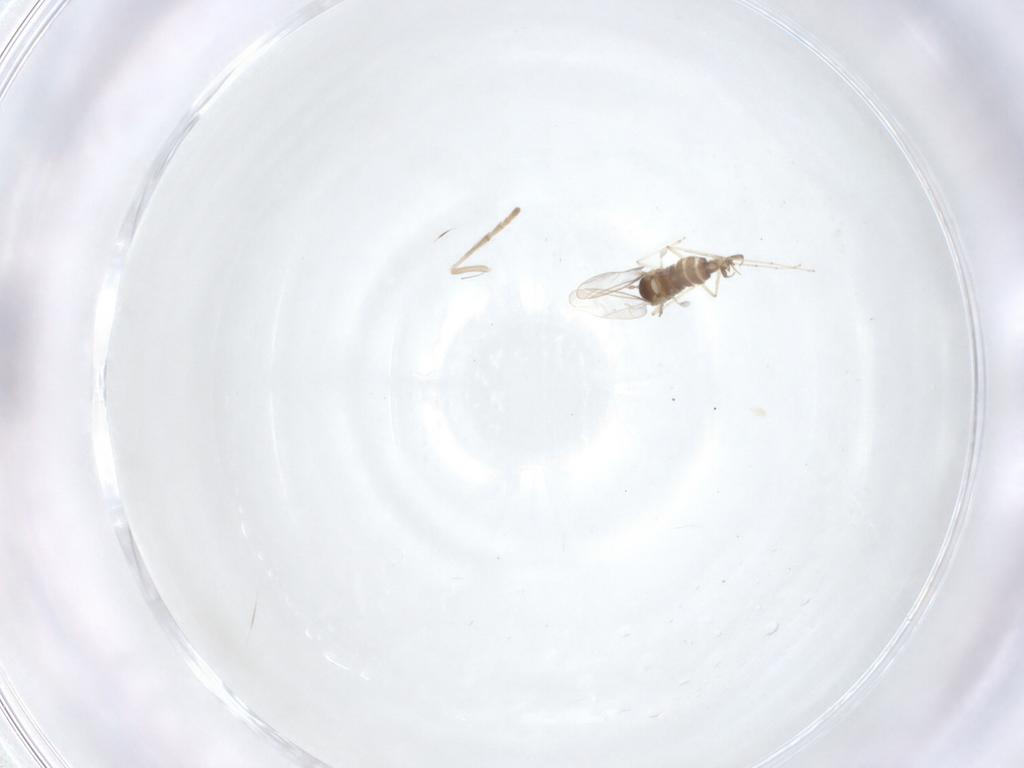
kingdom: Animalia
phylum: Arthropoda
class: Insecta
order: Diptera
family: Cecidomyiidae
